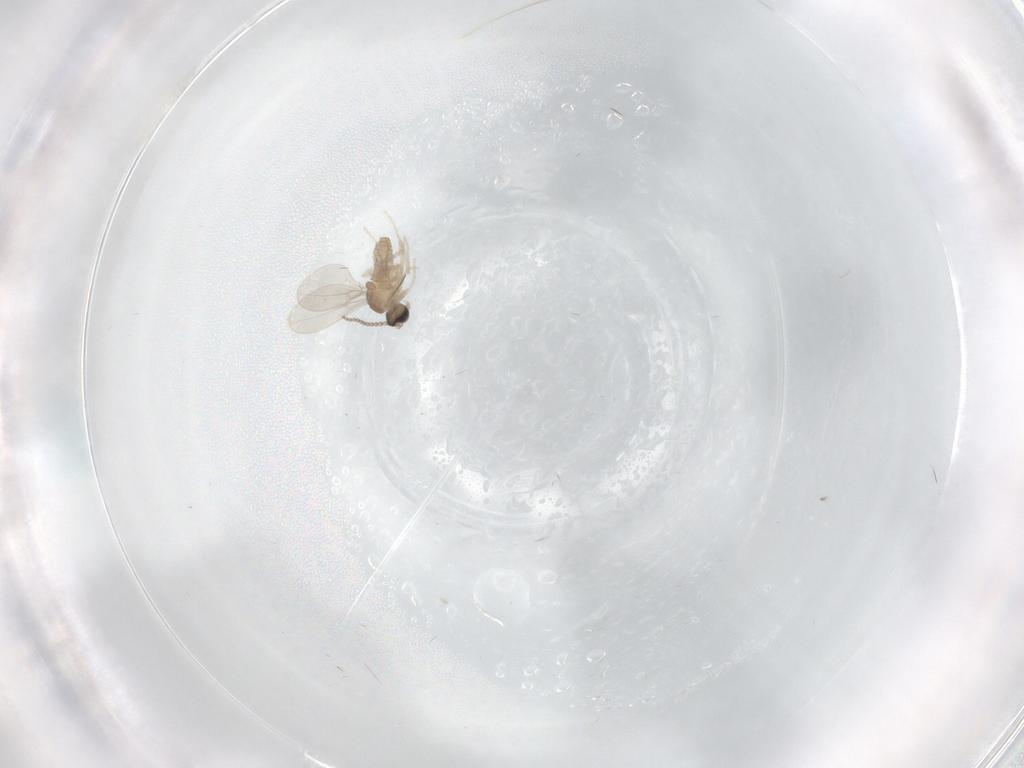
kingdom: Animalia
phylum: Arthropoda
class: Insecta
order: Diptera
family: Cecidomyiidae
